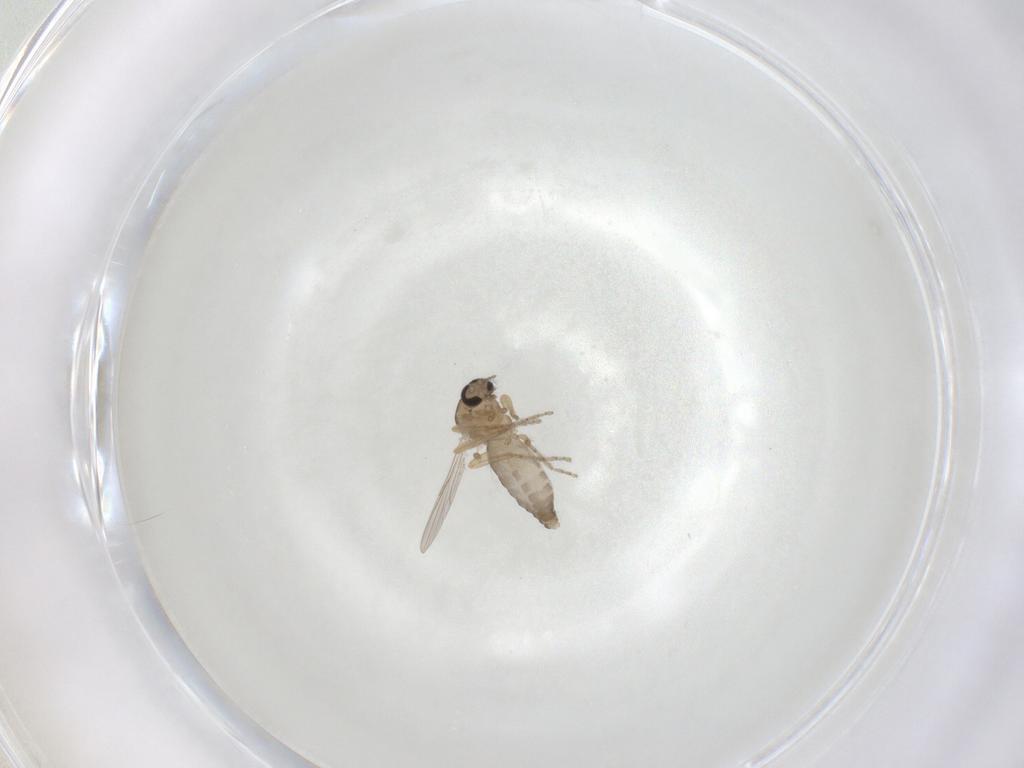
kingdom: Animalia
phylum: Arthropoda
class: Insecta
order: Diptera
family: Ceratopogonidae
